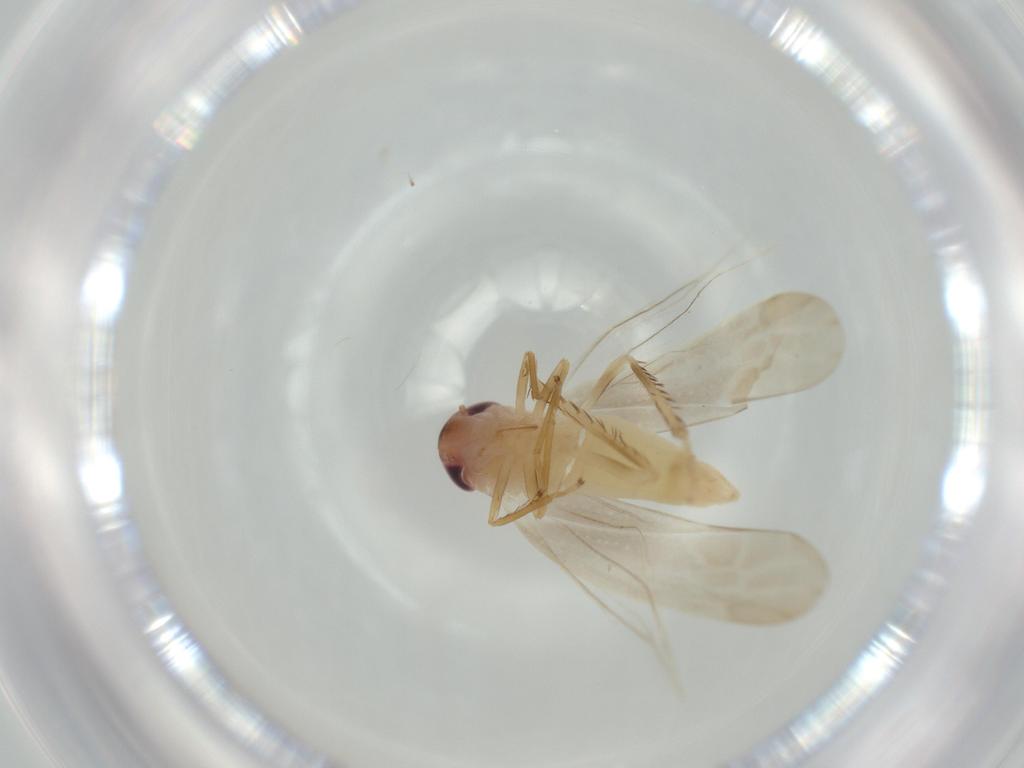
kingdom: Animalia
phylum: Arthropoda
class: Insecta
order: Hemiptera
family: Cicadellidae
